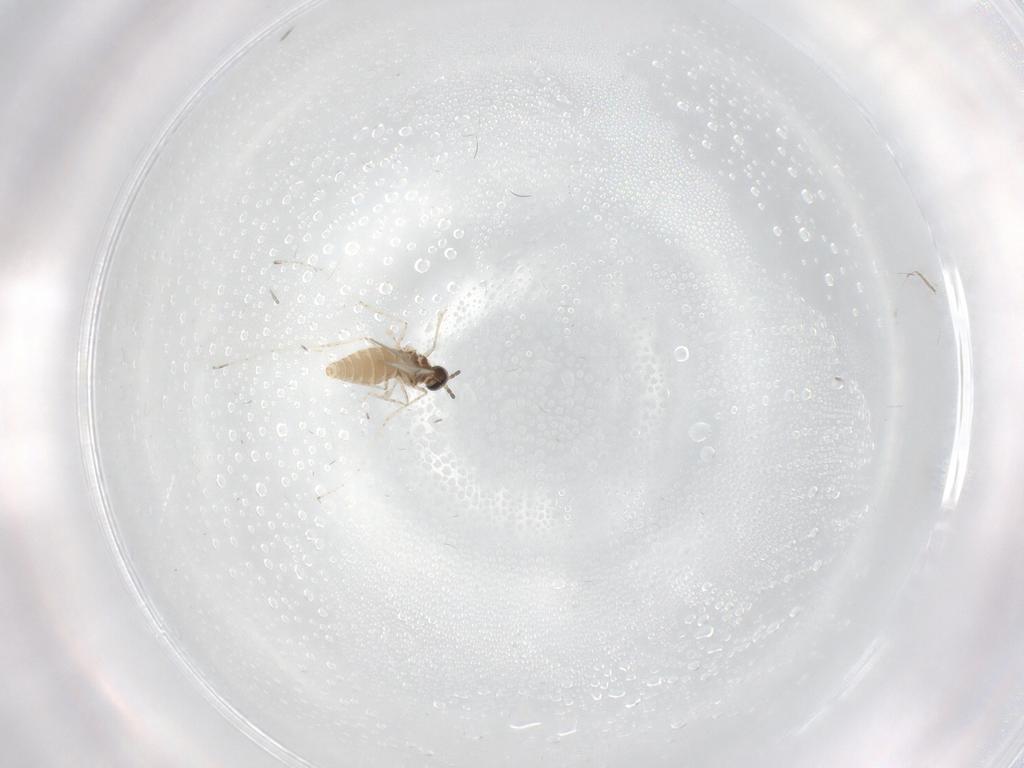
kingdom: Animalia
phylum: Arthropoda
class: Insecta
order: Diptera
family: Dolichopodidae
